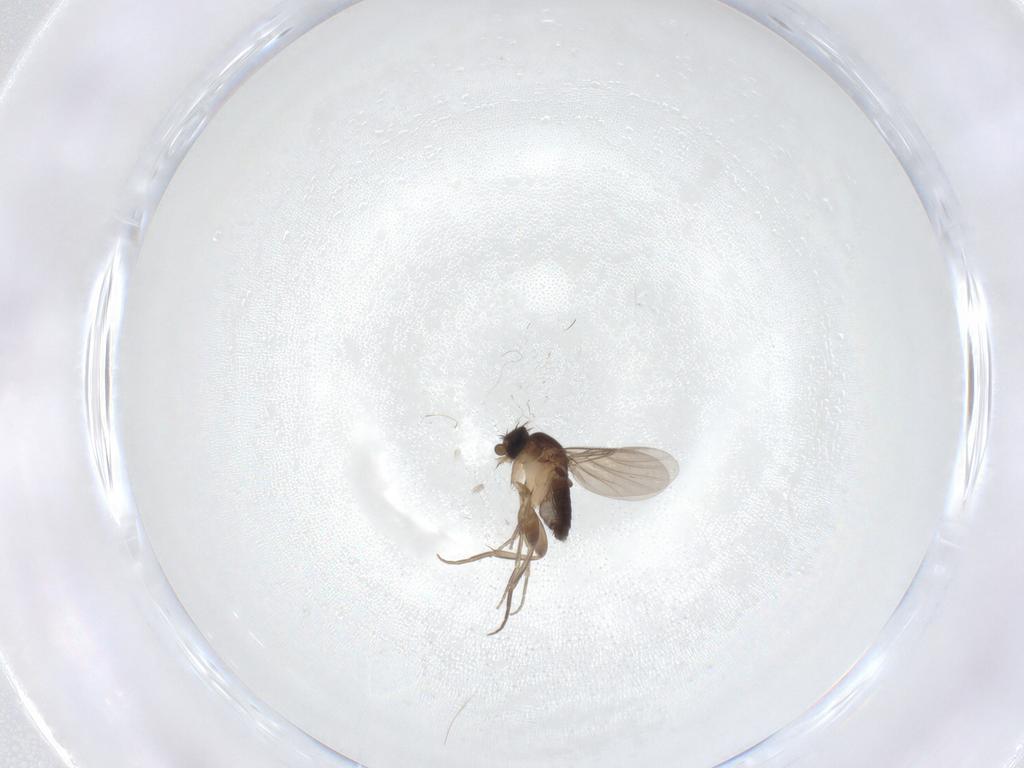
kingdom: Animalia
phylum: Arthropoda
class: Insecta
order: Diptera
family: Phoridae
